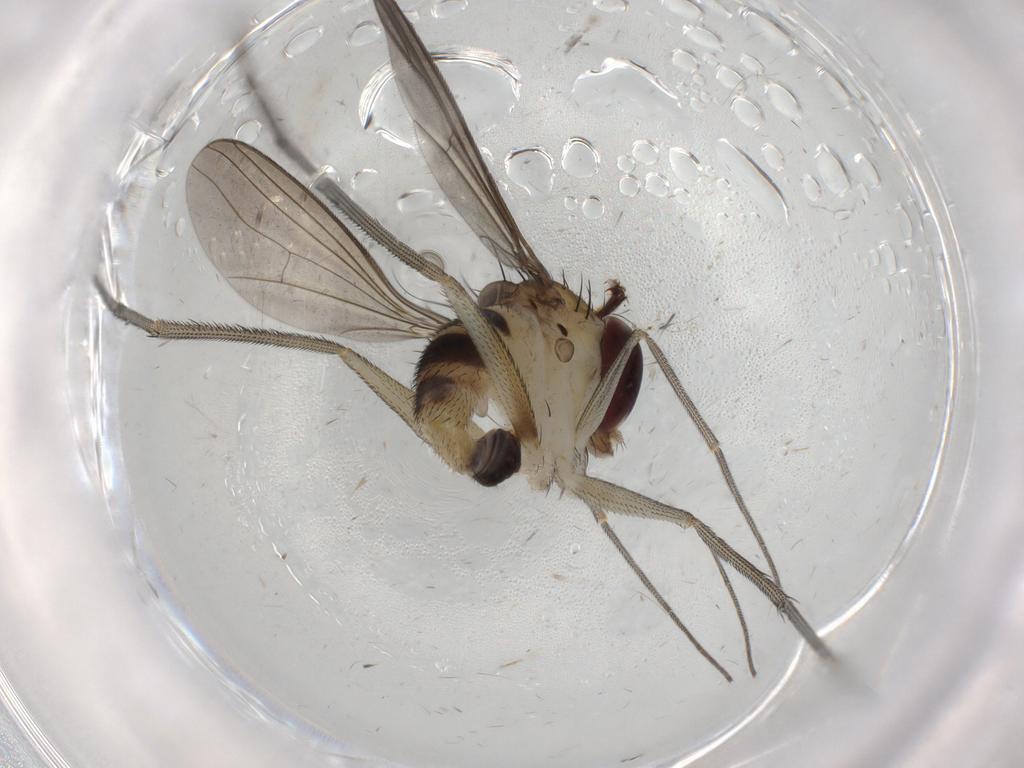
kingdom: Animalia
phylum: Arthropoda
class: Insecta
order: Diptera
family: Dolichopodidae
